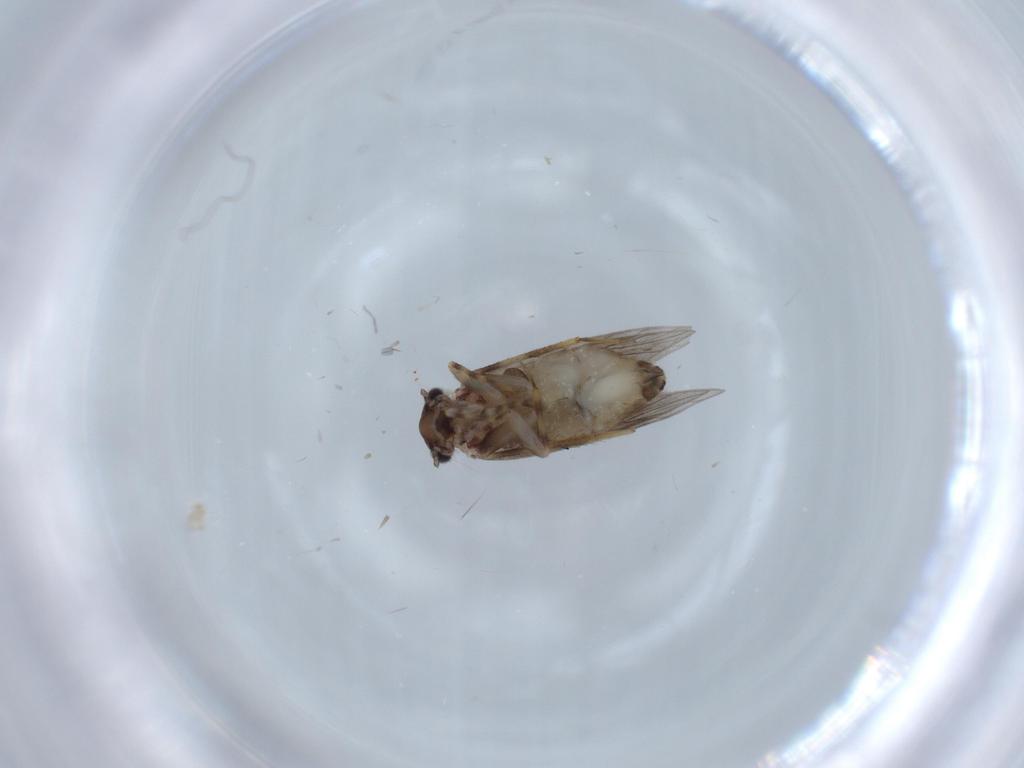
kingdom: Animalia
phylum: Arthropoda
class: Insecta
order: Psocodea
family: Lepidopsocidae
